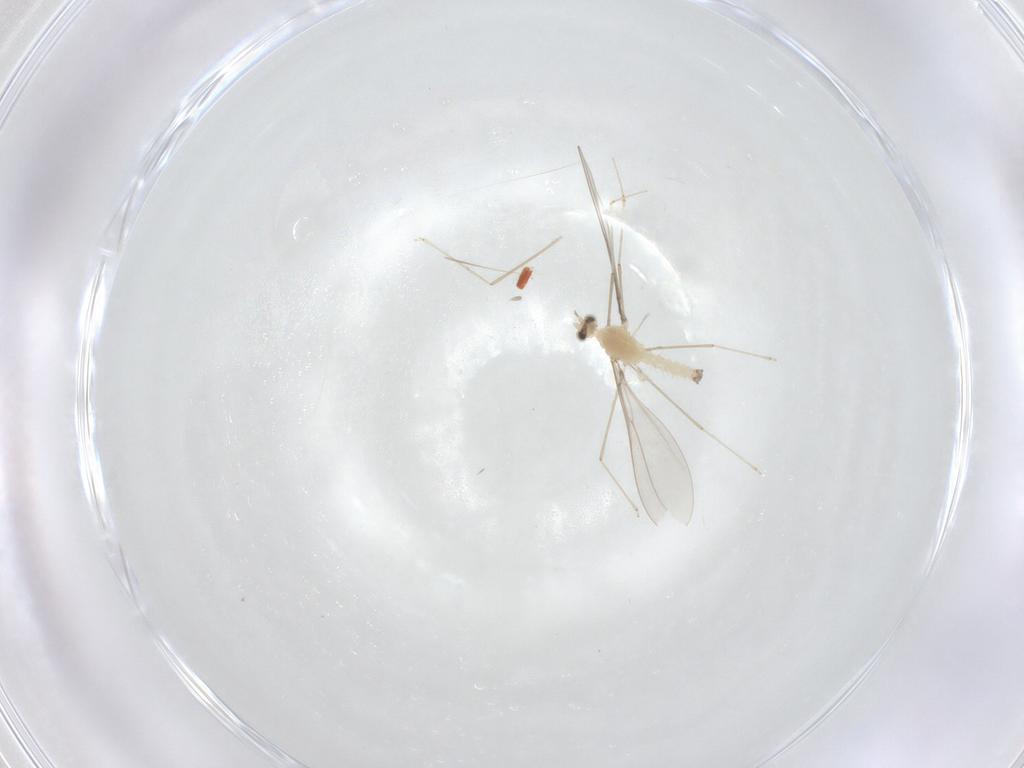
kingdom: Animalia
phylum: Arthropoda
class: Insecta
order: Diptera
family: Cecidomyiidae
